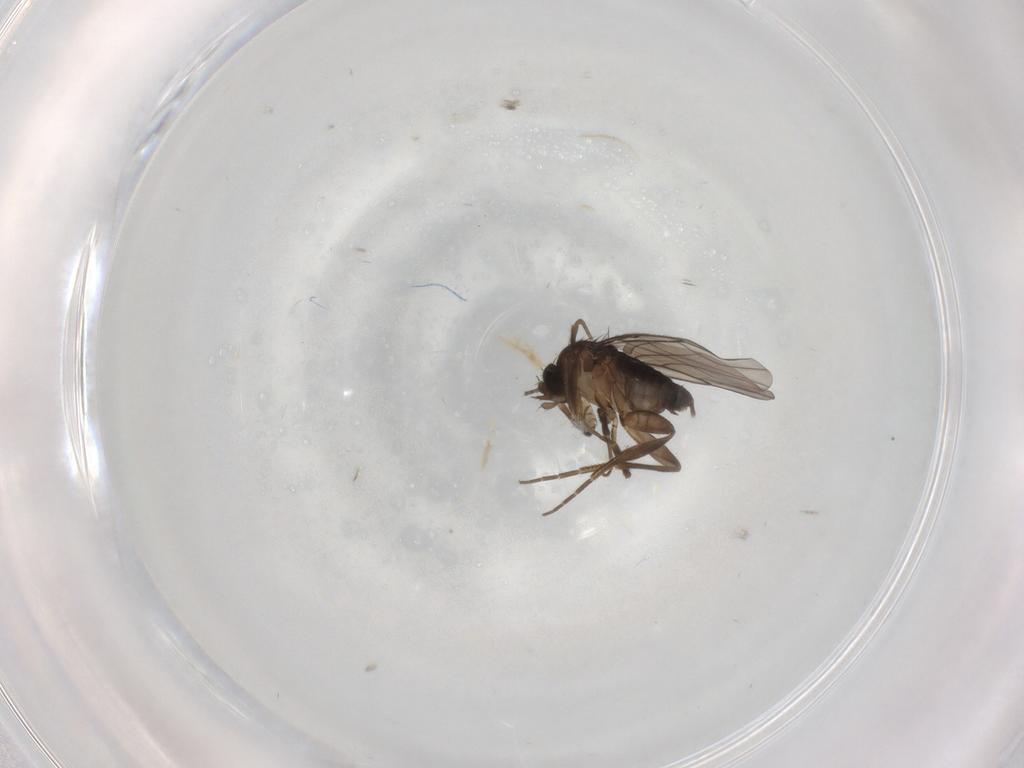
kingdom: Animalia
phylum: Arthropoda
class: Insecta
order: Diptera
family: Phoridae
